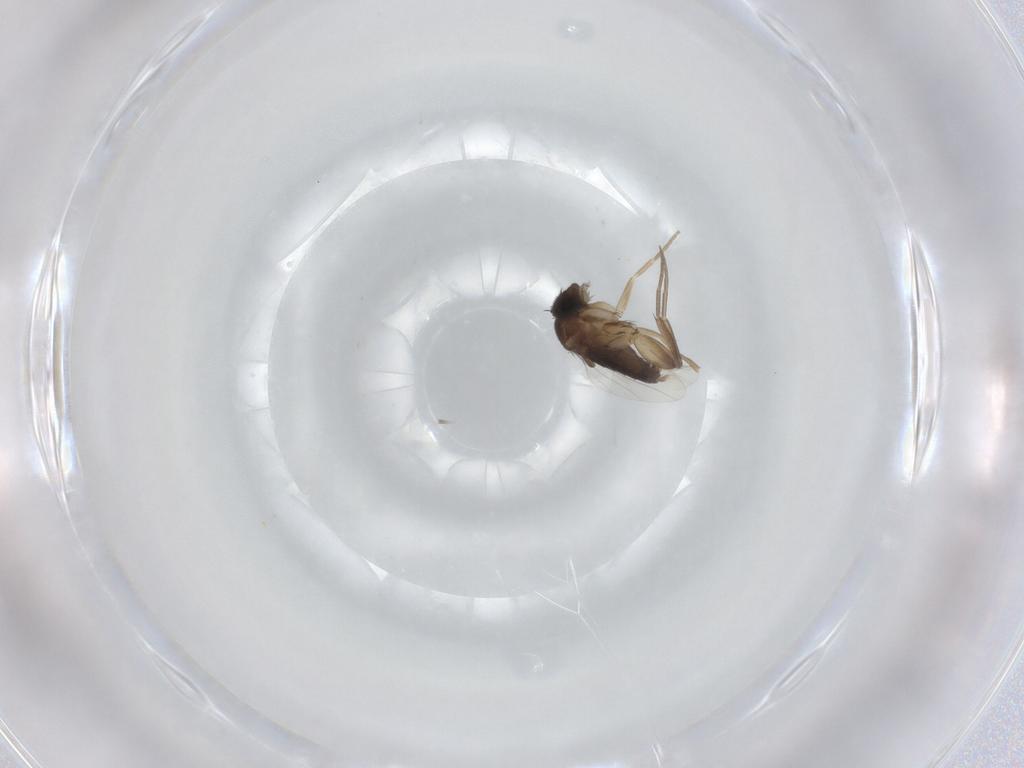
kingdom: Animalia
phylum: Arthropoda
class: Insecta
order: Diptera
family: Phoridae
